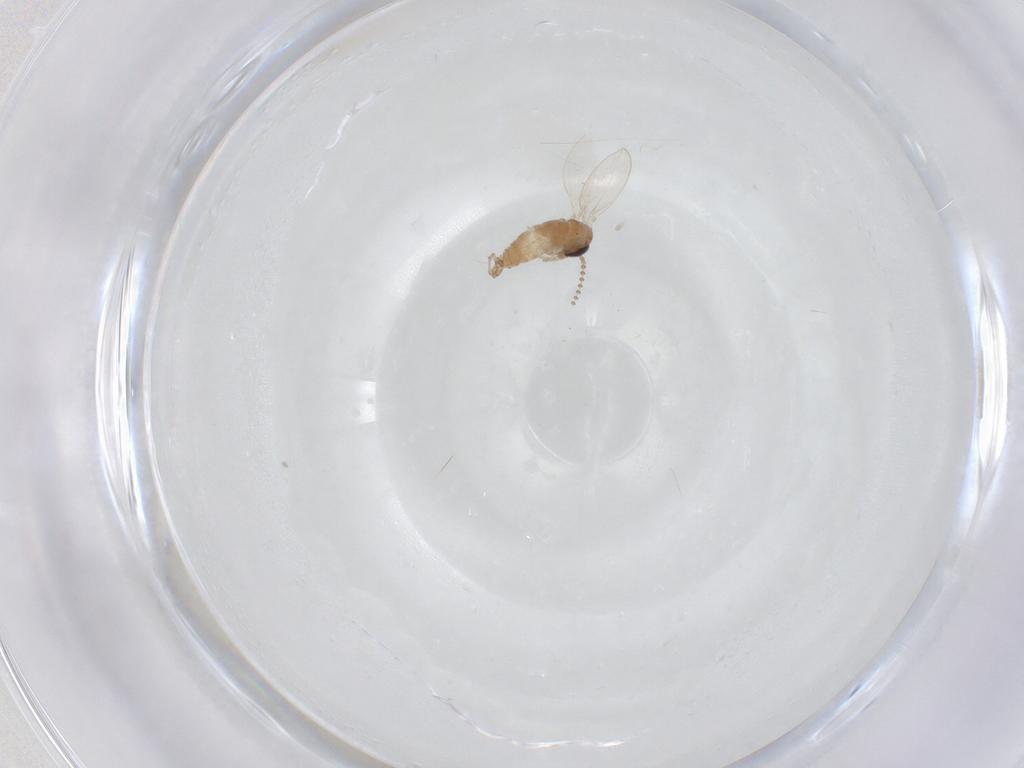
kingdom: Animalia
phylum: Arthropoda
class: Insecta
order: Diptera
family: Psychodidae
